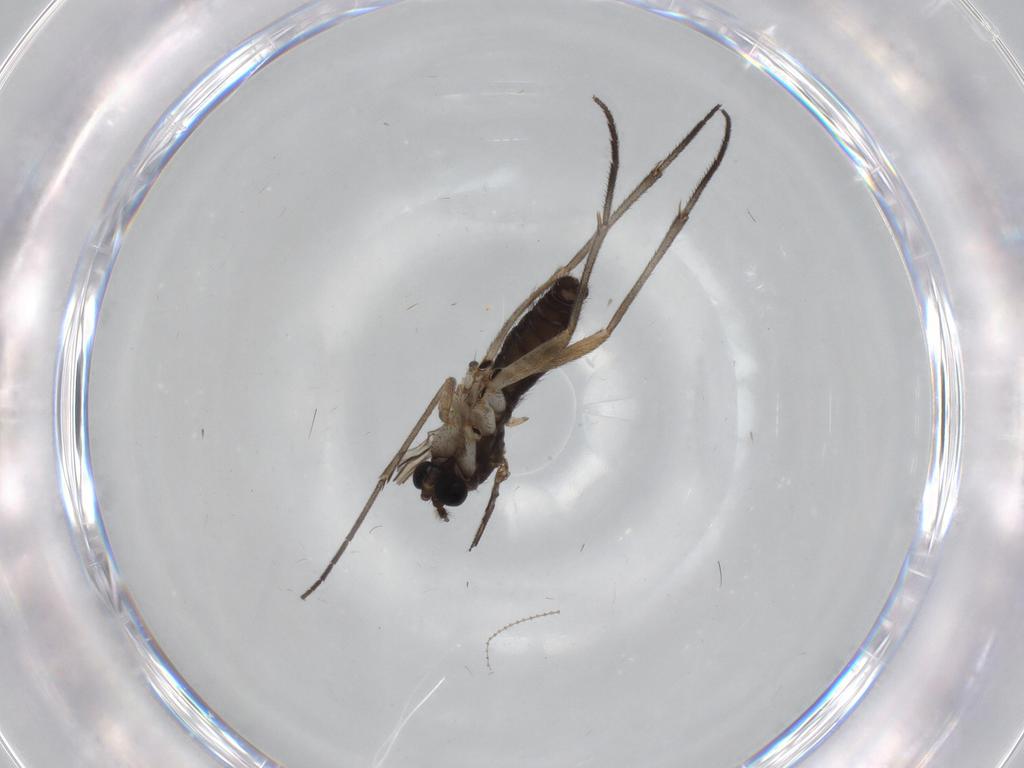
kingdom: Animalia
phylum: Arthropoda
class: Insecta
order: Diptera
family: Sciaridae
